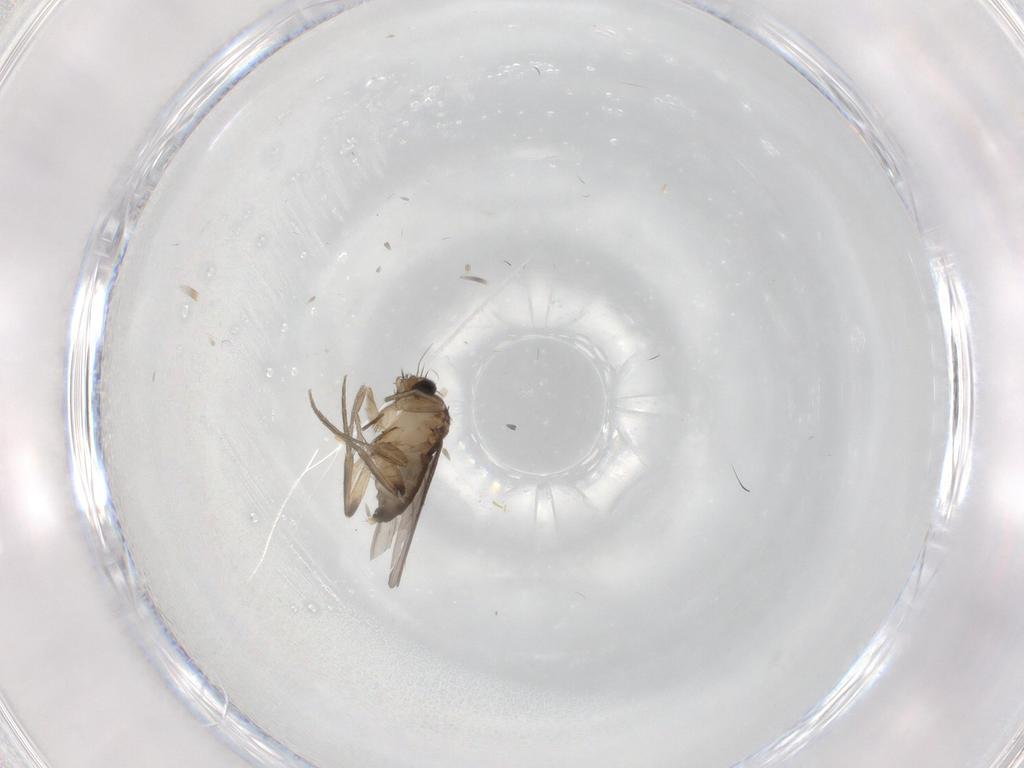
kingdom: Animalia
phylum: Arthropoda
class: Insecta
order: Diptera
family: Phoridae
